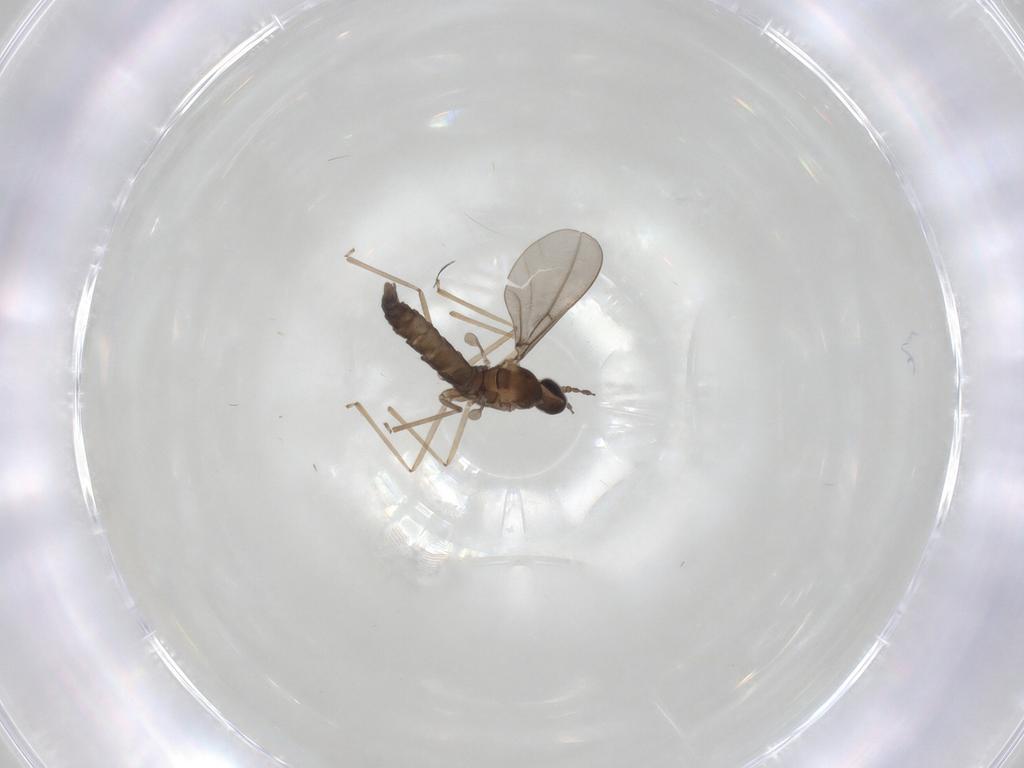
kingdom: Animalia
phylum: Arthropoda
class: Insecta
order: Diptera
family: Cecidomyiidae
